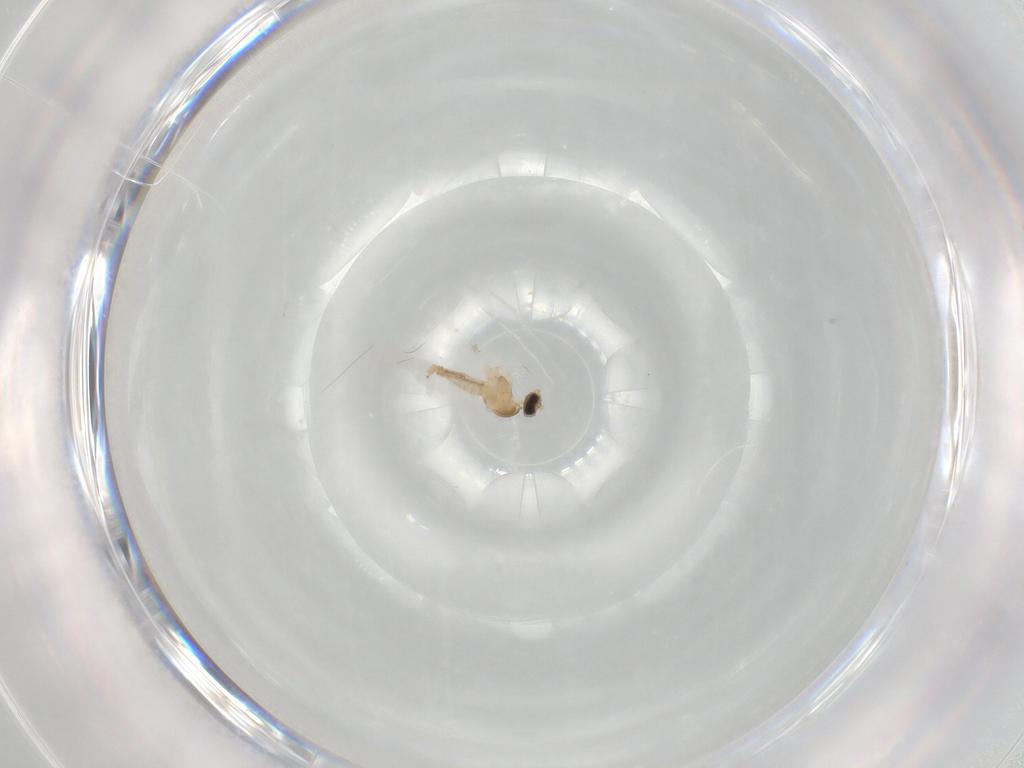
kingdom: Animalia
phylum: Arthropoda
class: Insecta
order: Diptera
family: Cecidomyiidae
